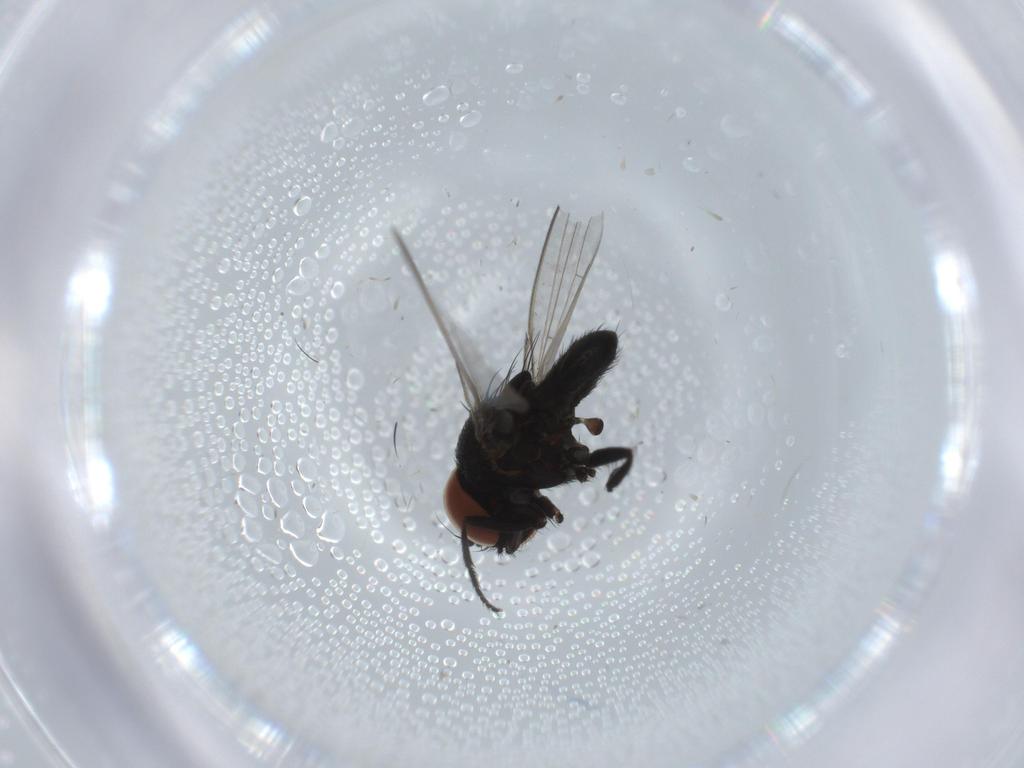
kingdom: Animalia
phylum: Arthropoda
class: Insecta
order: Diptera
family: Milichiidae
